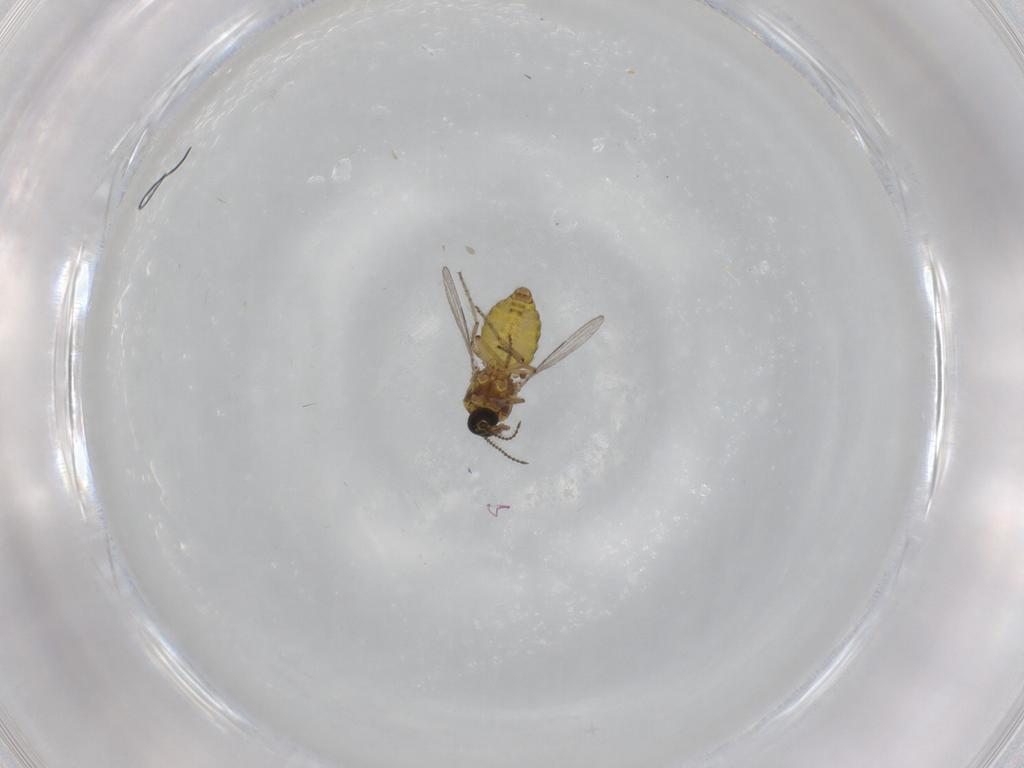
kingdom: Animalia
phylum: Arthropoda
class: Insecta
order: Diptera
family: Ceratopogonidae
